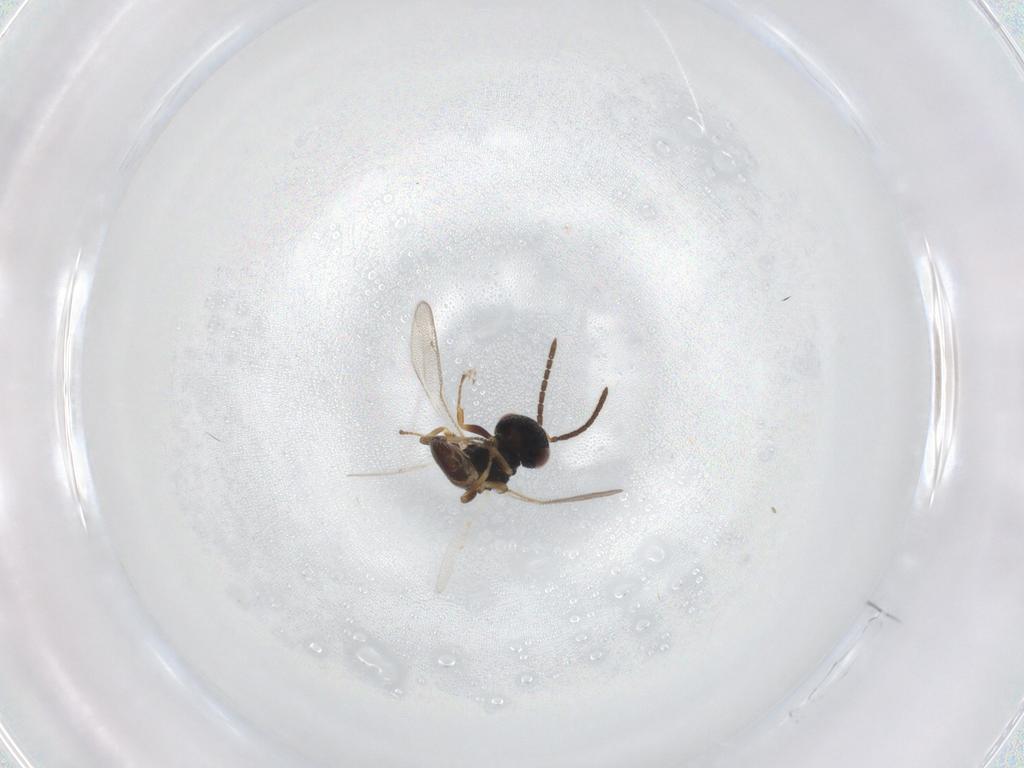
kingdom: Animalia
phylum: Arthropoda
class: Insecta
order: Hymenoptera
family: Pteromalidae
